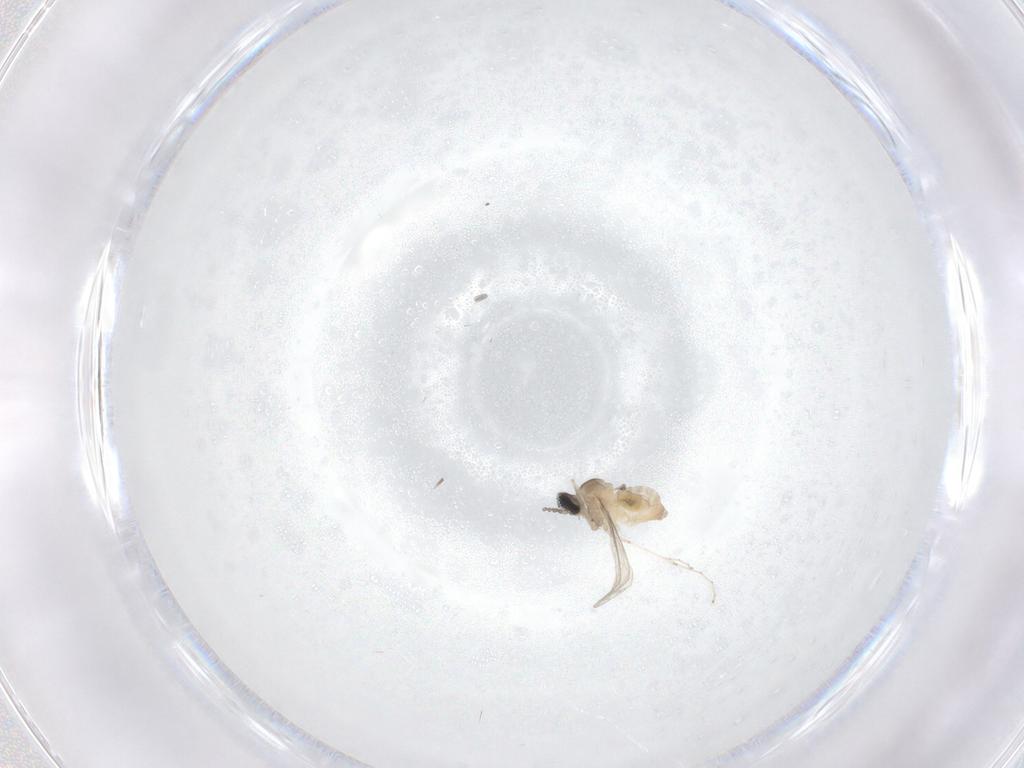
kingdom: Animalia
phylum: Arthropoda
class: Insecta
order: Diptera
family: Cecidomyiidae
